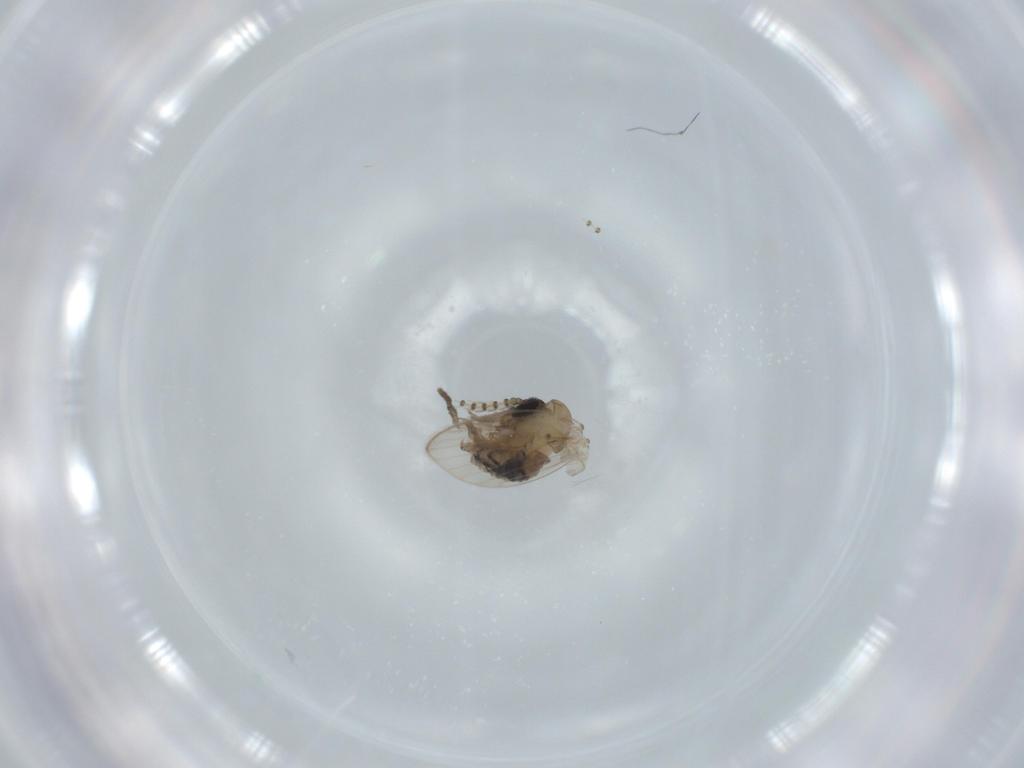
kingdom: Animalia
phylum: Arthropoda
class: Insecta
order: Diptera
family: Psychodidae
